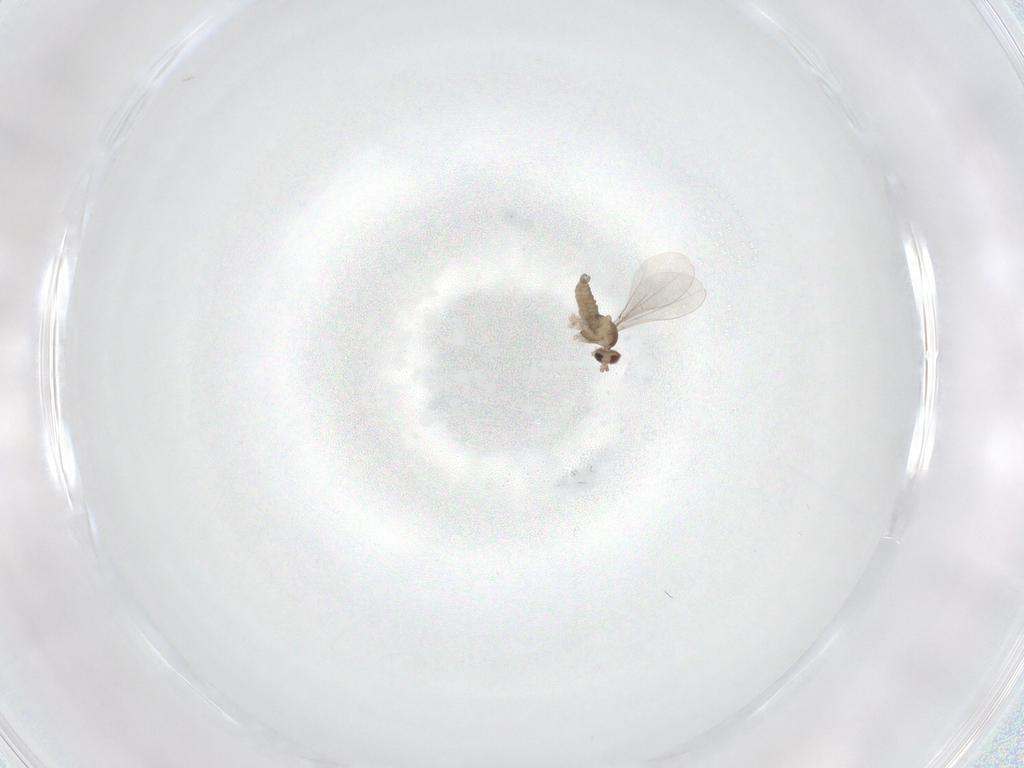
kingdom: Animalia
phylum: Arthropoda
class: Insecta
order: Diptera
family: Cecidomyiidae
